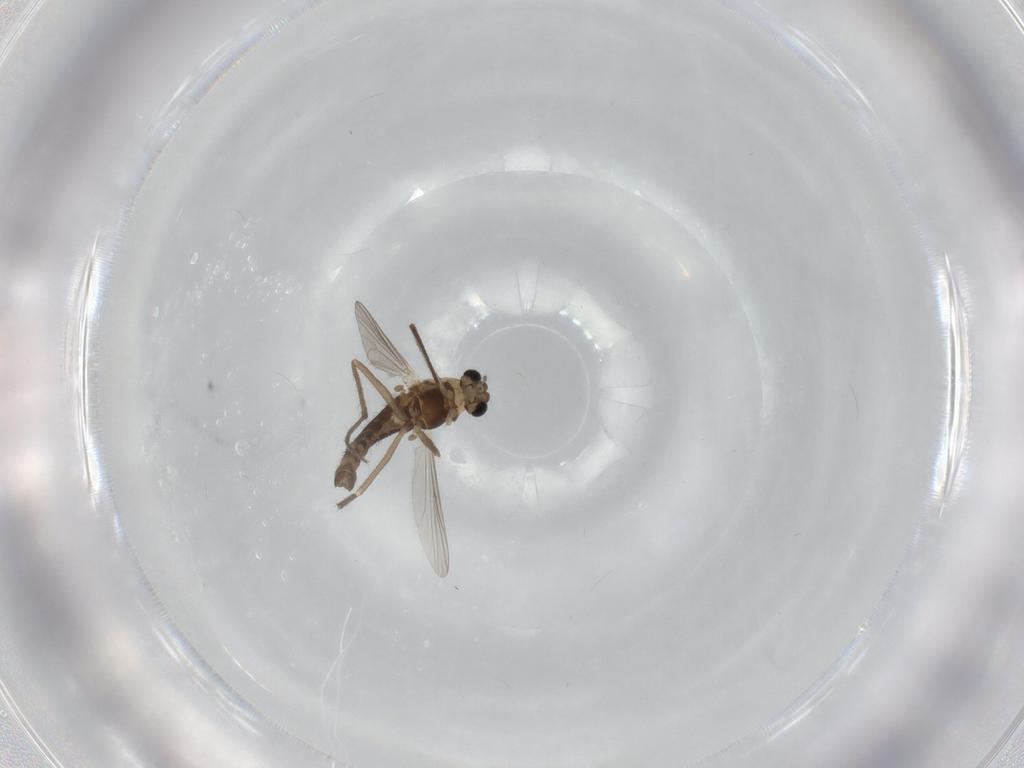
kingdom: Animalia
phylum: Arthropoda
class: Insecta
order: Diptera
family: Chironomidae
